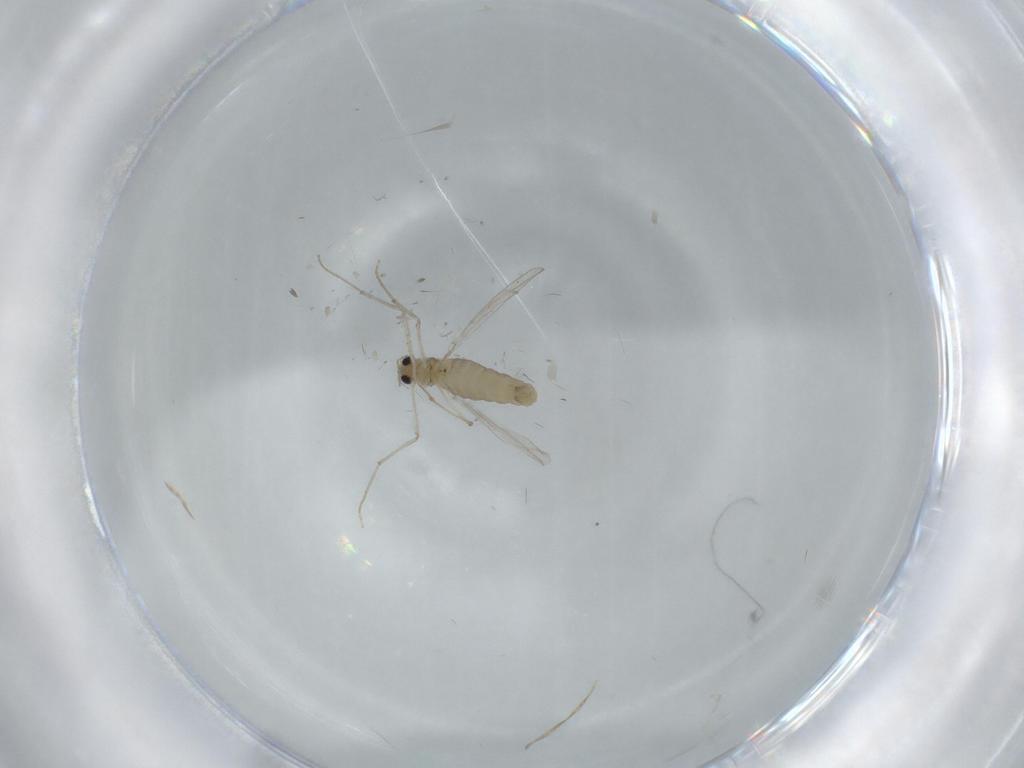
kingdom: Animalia
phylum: Arthropoda
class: Insecta
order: Diptera
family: Chironomidae
